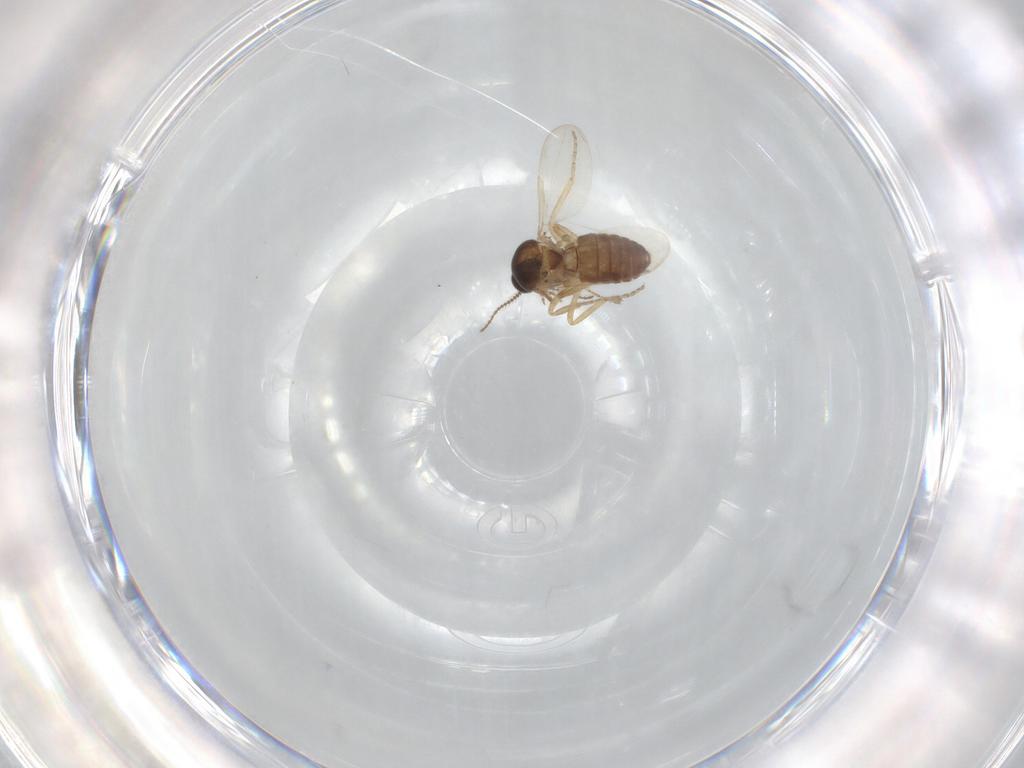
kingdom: Animalia
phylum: Arthropoda
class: Insecta
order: Diptera
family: Ceratopogonidae
